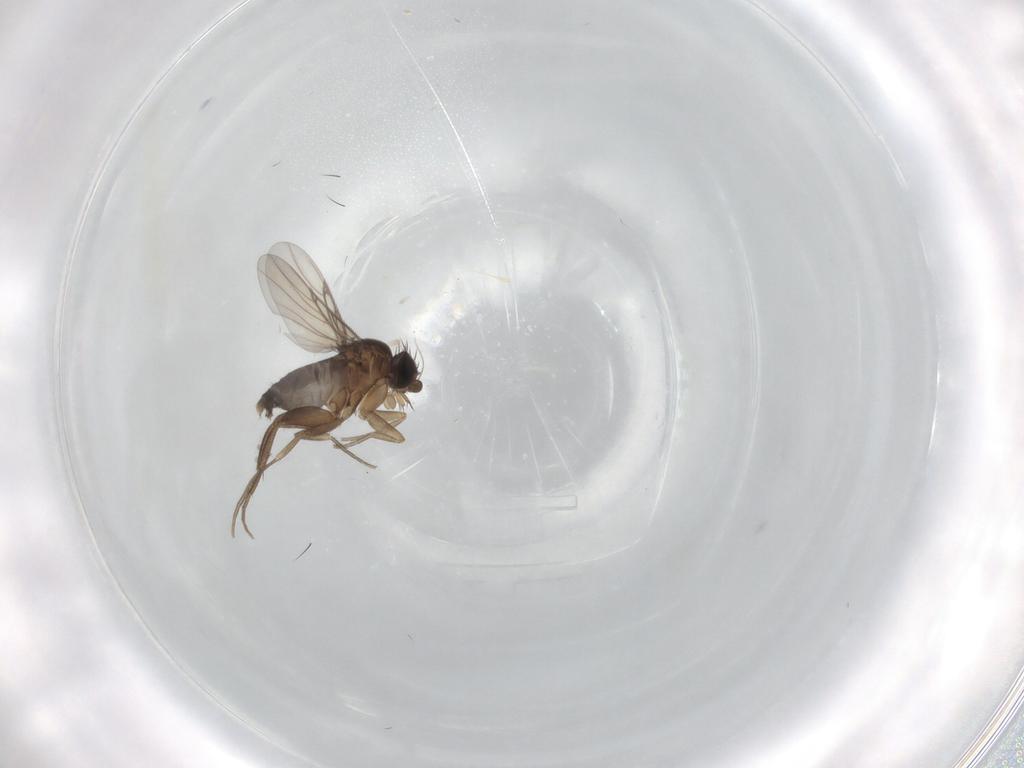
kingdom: Animalia
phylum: Arthropoda
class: Insecta
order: Diptera
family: Phoridae
